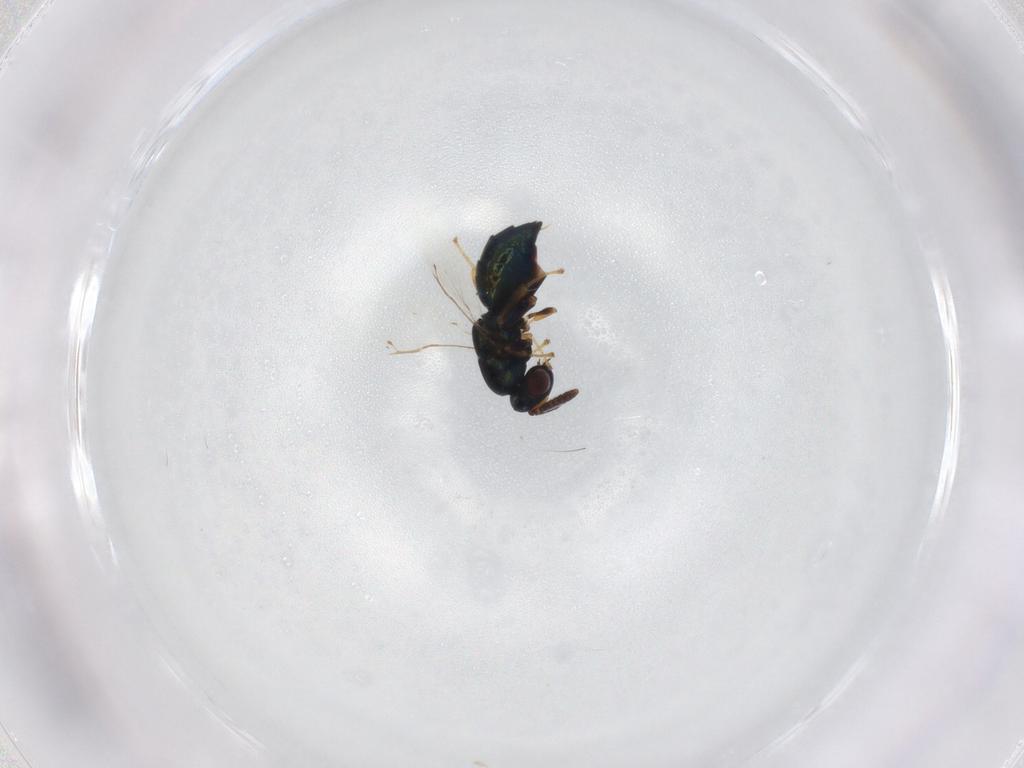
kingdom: Animalia
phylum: Arthropoda
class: Insecta
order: Hymenoptera
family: Pteromalidae
